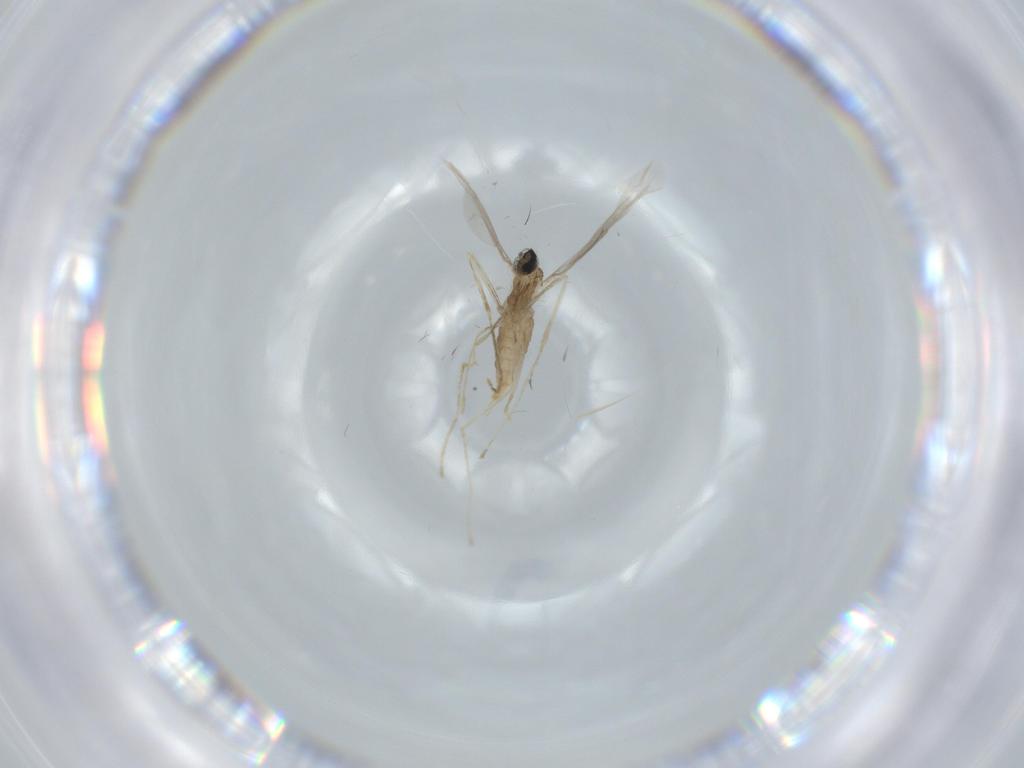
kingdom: Animalia
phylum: Arthropoda
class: Insecta
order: Diptera
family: Cecidomyiidae
